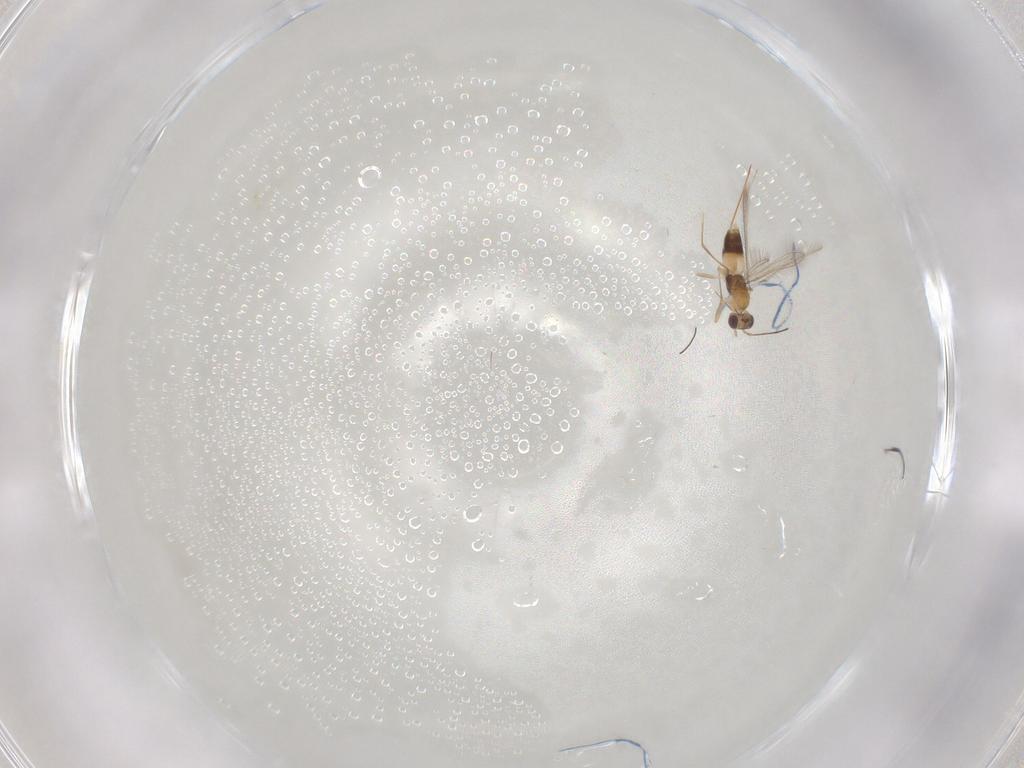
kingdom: Animalia
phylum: Arthropoda
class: Insecta
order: Hymenoptera
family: Mymaridae
